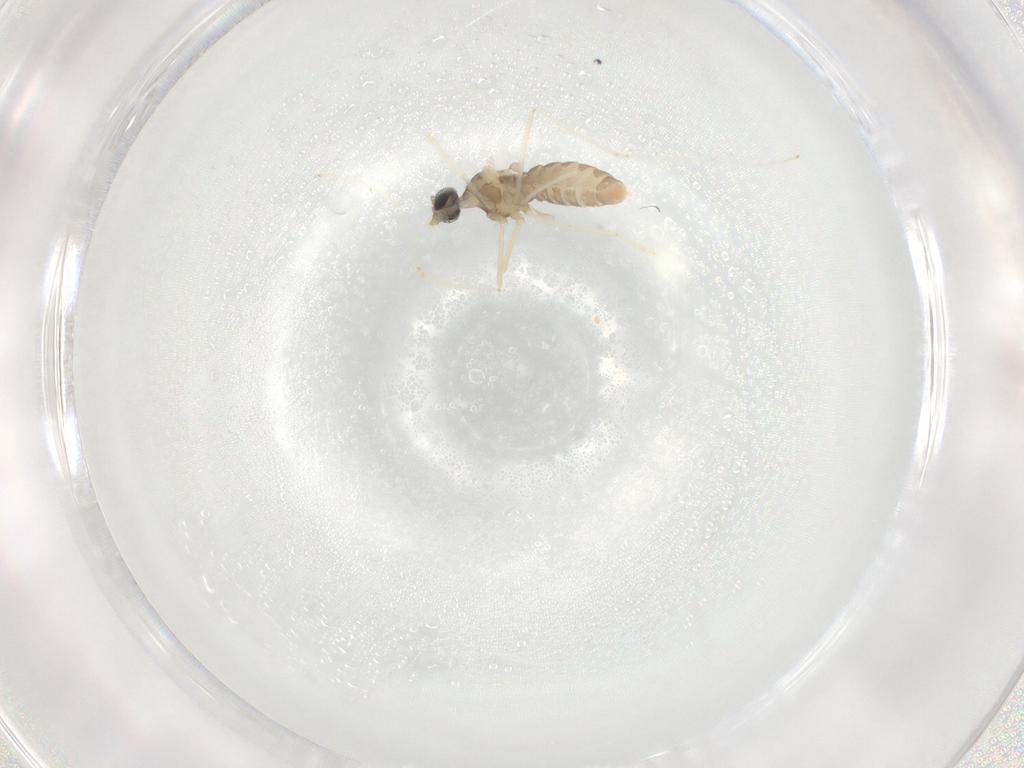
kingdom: Animalia
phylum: Arthropoda
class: Insecta
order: Diptera
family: Cecidomyiidae
